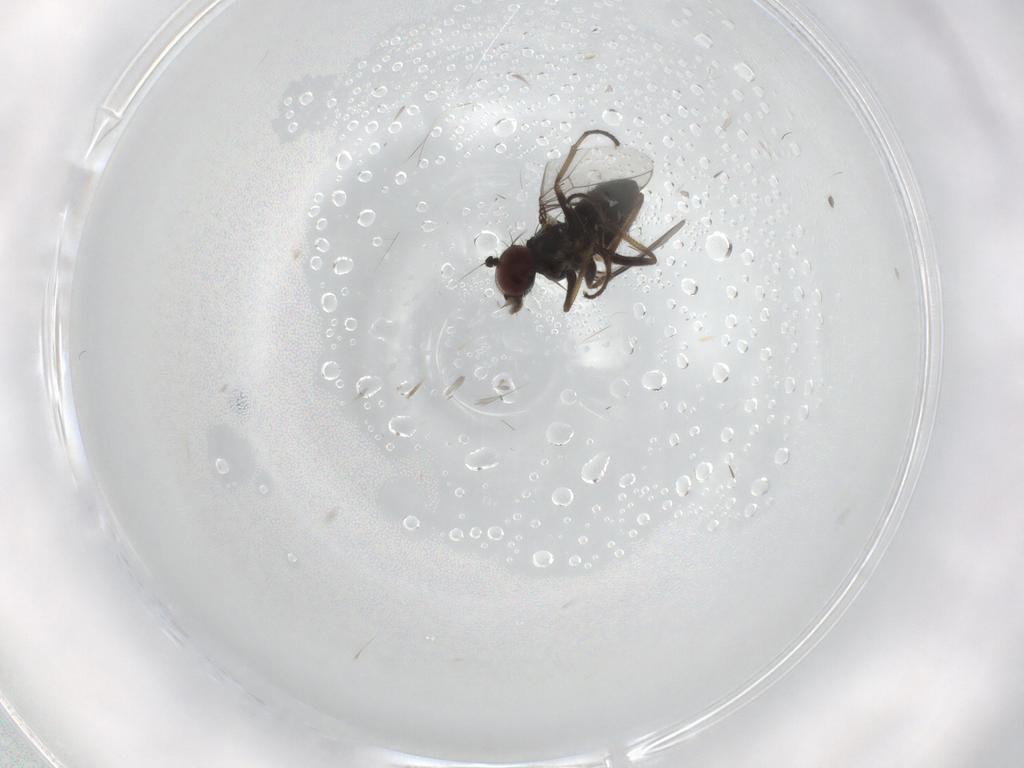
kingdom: Animalia
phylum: Arthropoda
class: Insecta
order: Diptera
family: Dolichopodidae
